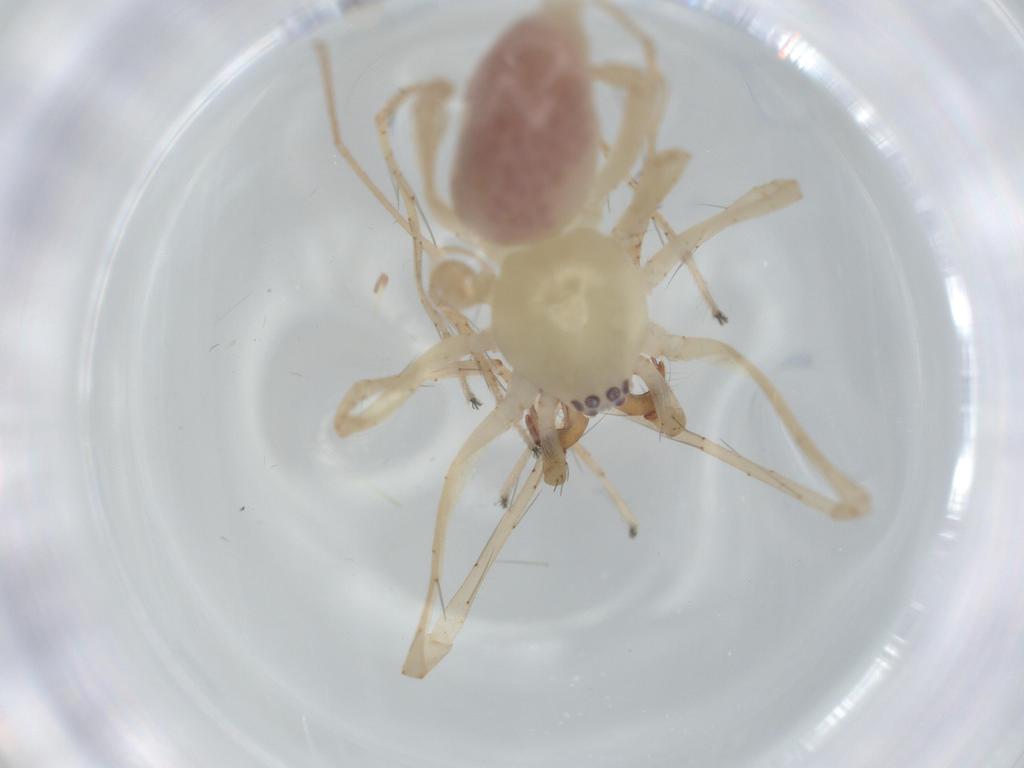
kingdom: Animalia
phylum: Arthropoda
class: Arachnida
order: Araneae
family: Anyphaenidae
